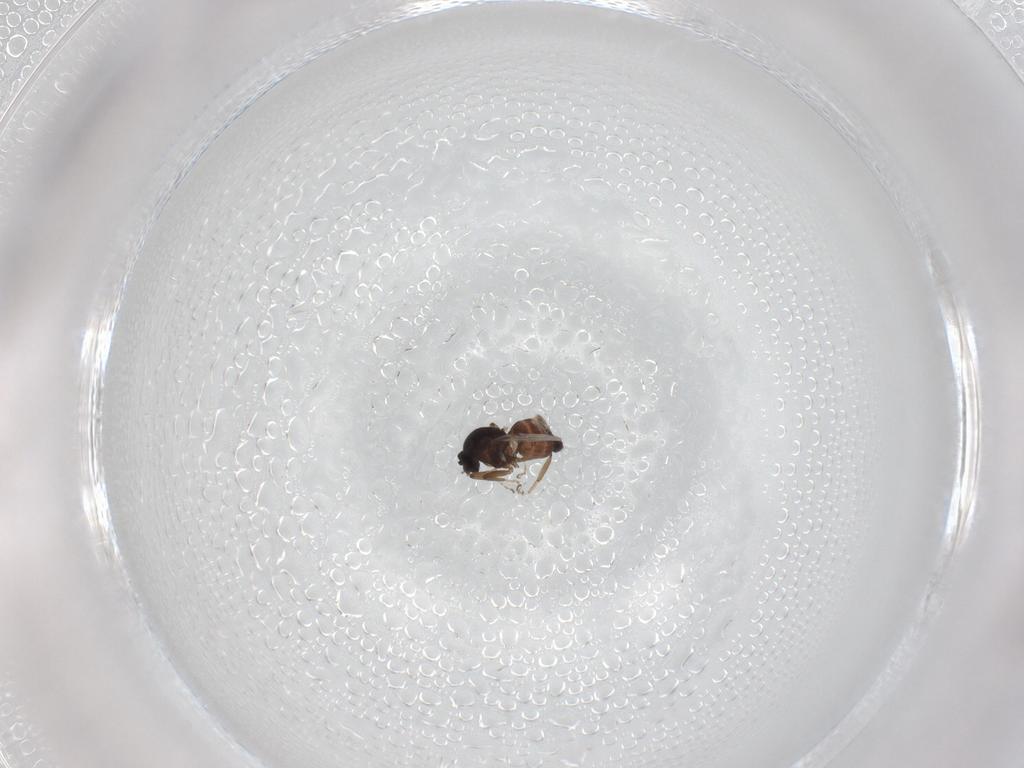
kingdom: Animalia
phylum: Arthropoda
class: Insecta
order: Diptera
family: Ceratopogonidae
